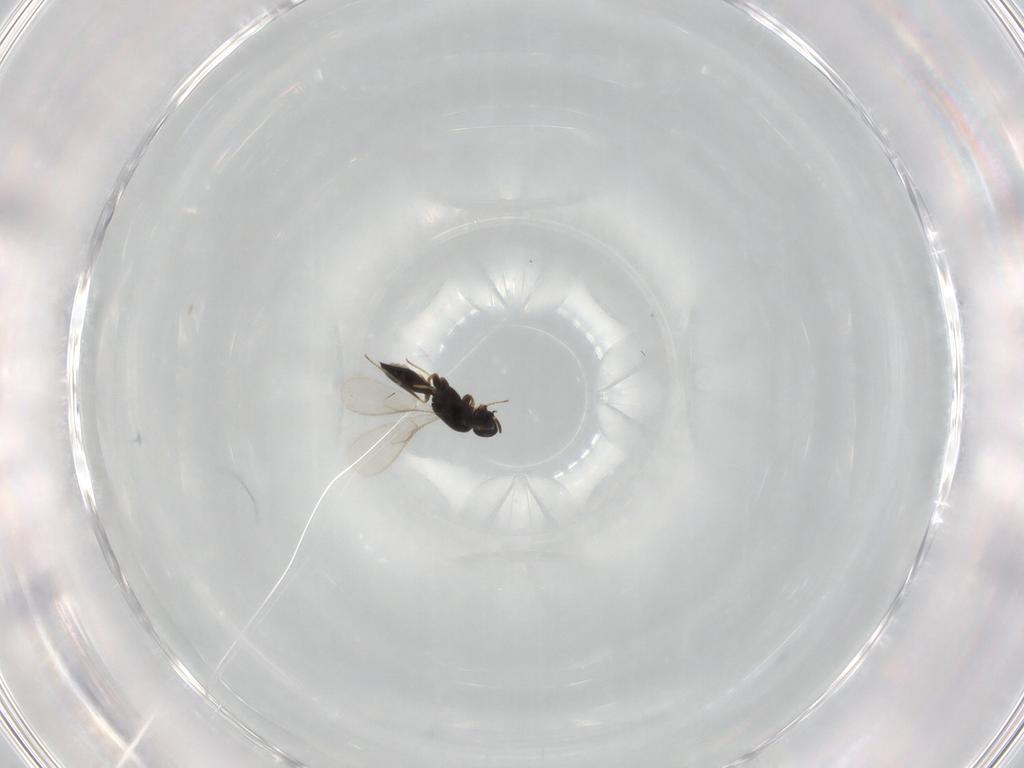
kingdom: Animalia
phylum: Arthropoda
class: Insecta
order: Hymenoptera
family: Scelionidae
